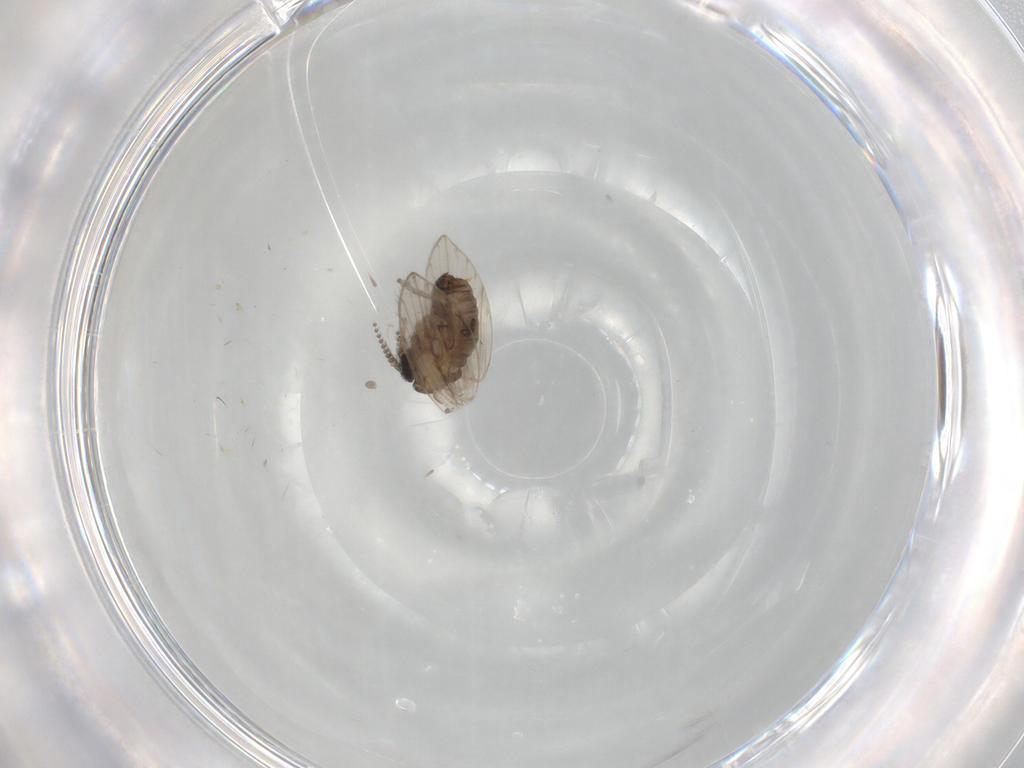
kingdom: Animalia
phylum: Arthropoda
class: Insecta
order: Diptera
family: Psychodidae
